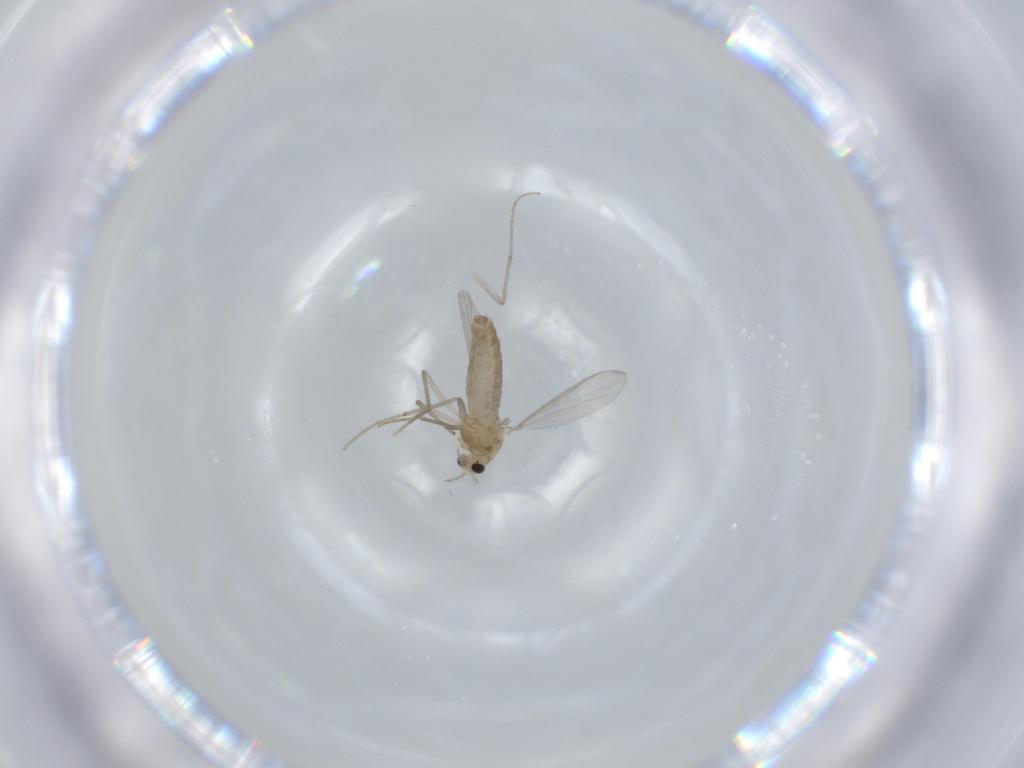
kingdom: Animalia
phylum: Arthropoda
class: Insecta
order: Diptera
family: Chironomidae
